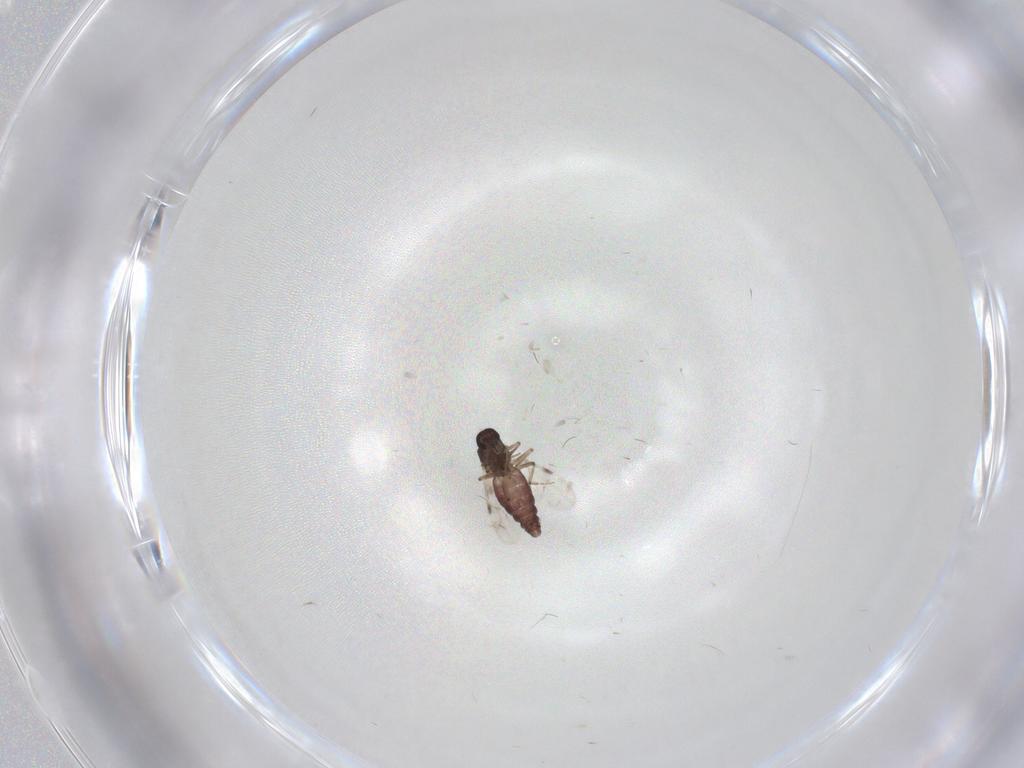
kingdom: Animalia
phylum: Arthropoda
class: Insecta
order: Diptera
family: Cecidomyiidae
